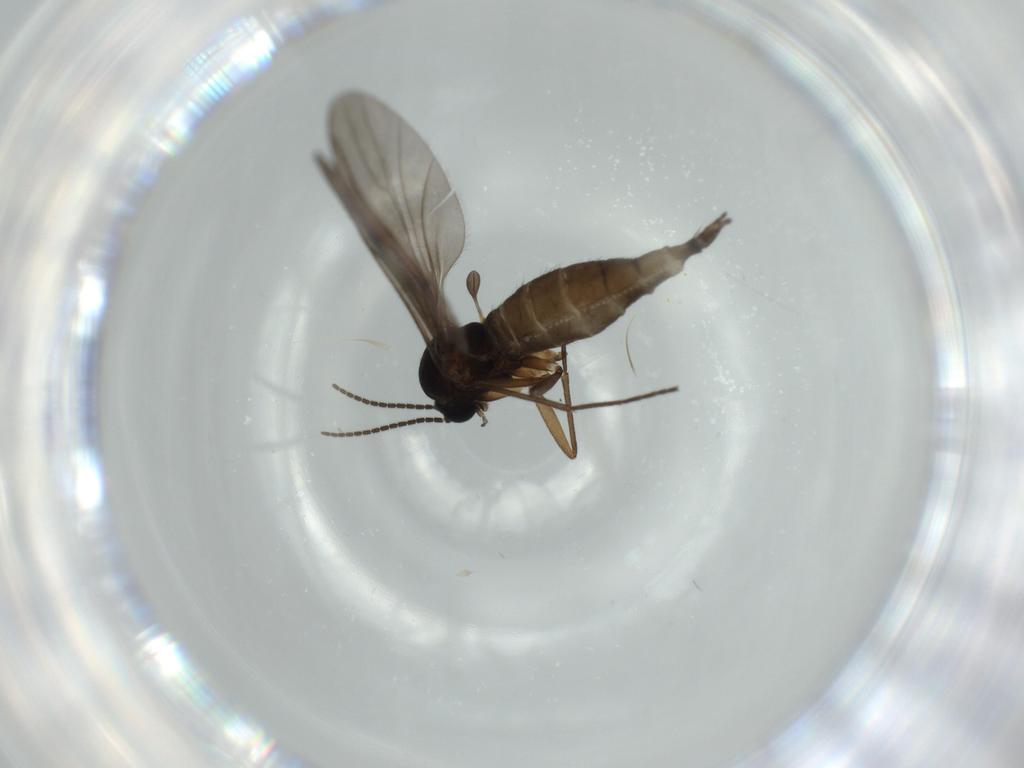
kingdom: Animalia
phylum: Arthropoda
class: Insecta
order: Diptera
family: Sciaridae
